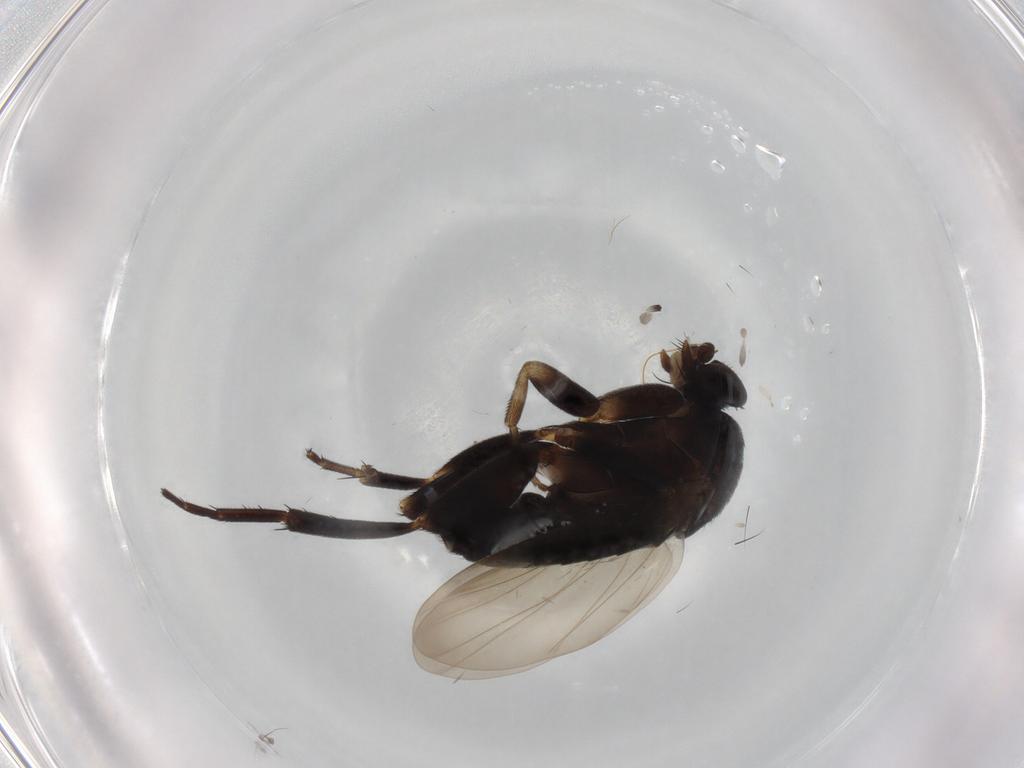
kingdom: Animalia
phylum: Arthropoda
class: Insecta
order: Diptera
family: Phoridae
